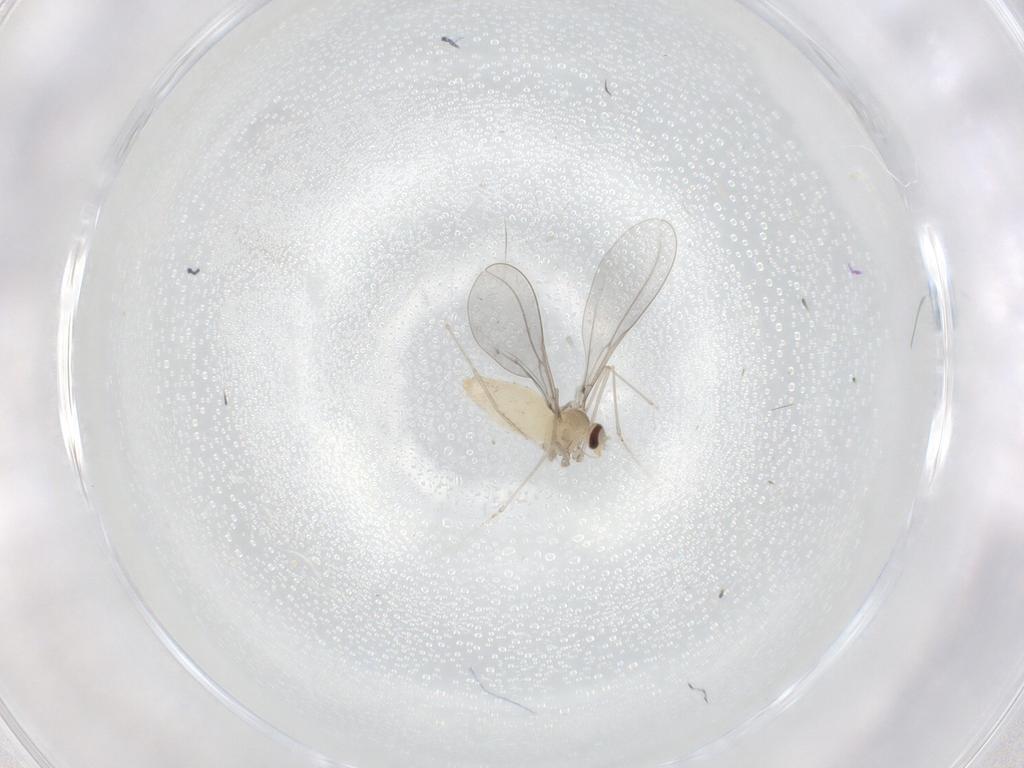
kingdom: Animalia
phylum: Arthropoda
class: Insecta
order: Diptera
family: Cecidomyiidae
